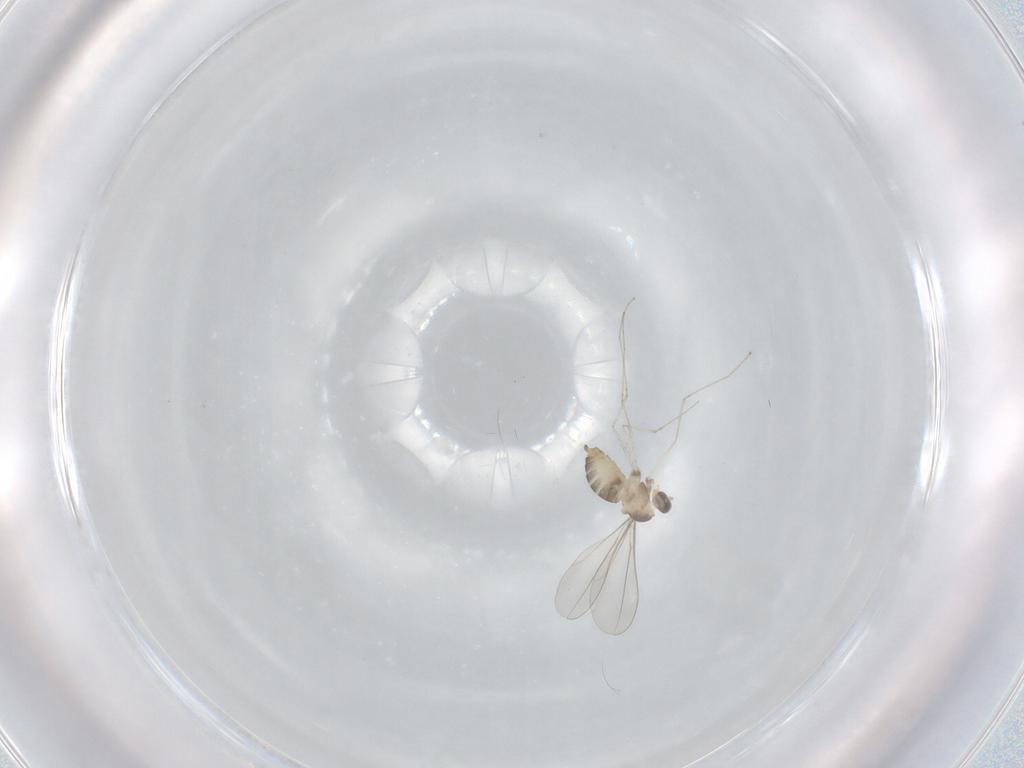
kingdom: Animalia
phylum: Arthropoda
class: Insecta
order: Diptera
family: Cecidomyiidae
